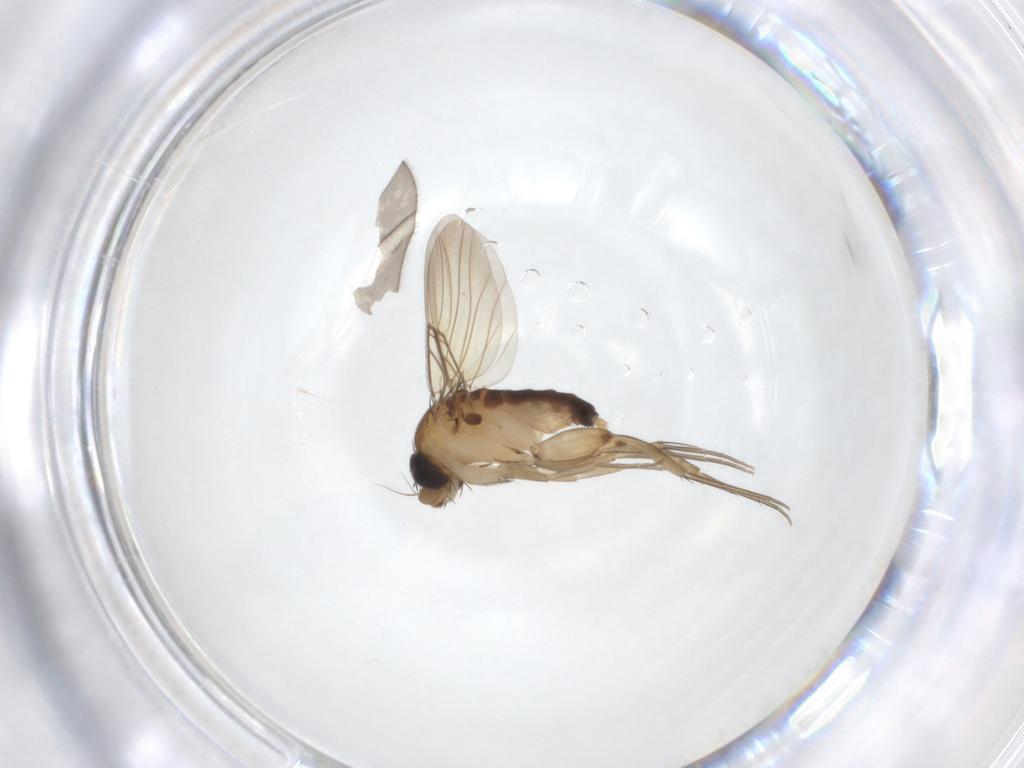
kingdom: Animalia
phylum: Arthropoda
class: Insecta
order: Diptera
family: Phoridae
